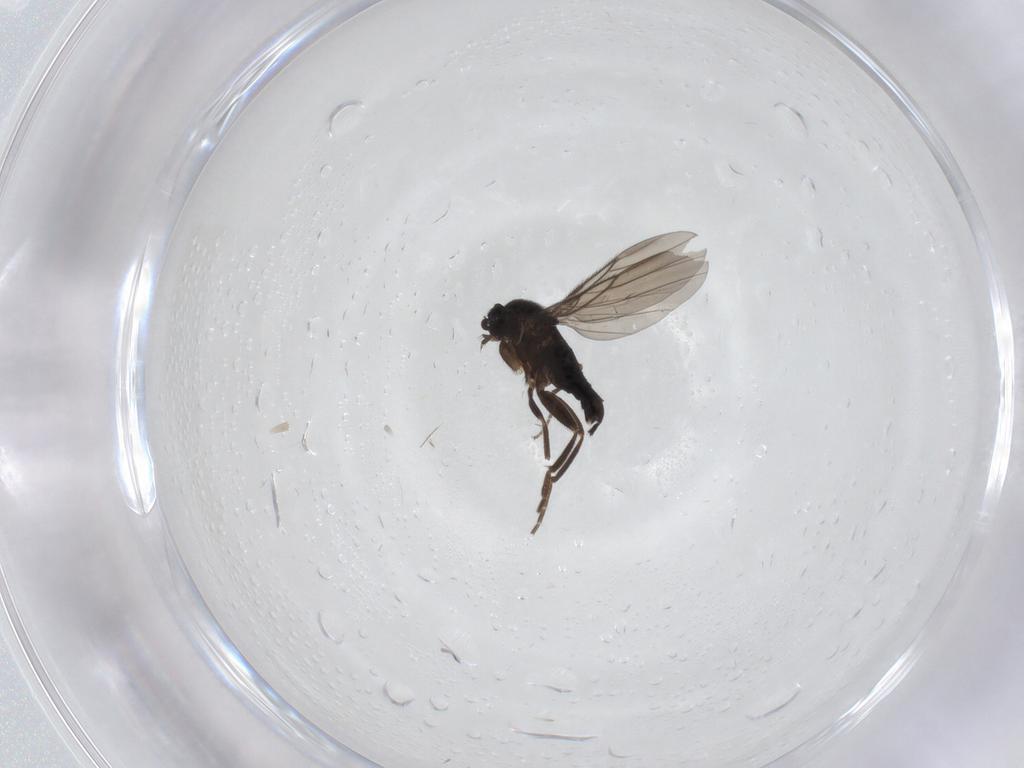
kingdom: Animalia
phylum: Arthropoda
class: Insecta
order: Diptera
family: Phoridae
